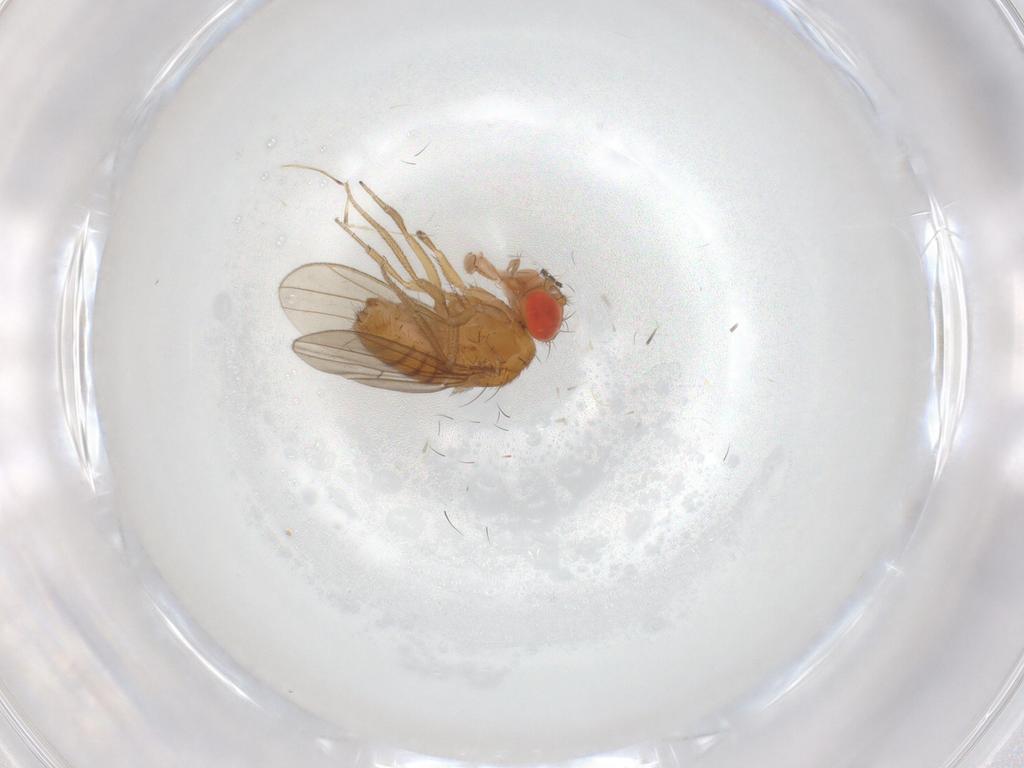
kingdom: Animalia
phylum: Arthropoda
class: Insecta
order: Diptera
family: Drosophilidae
